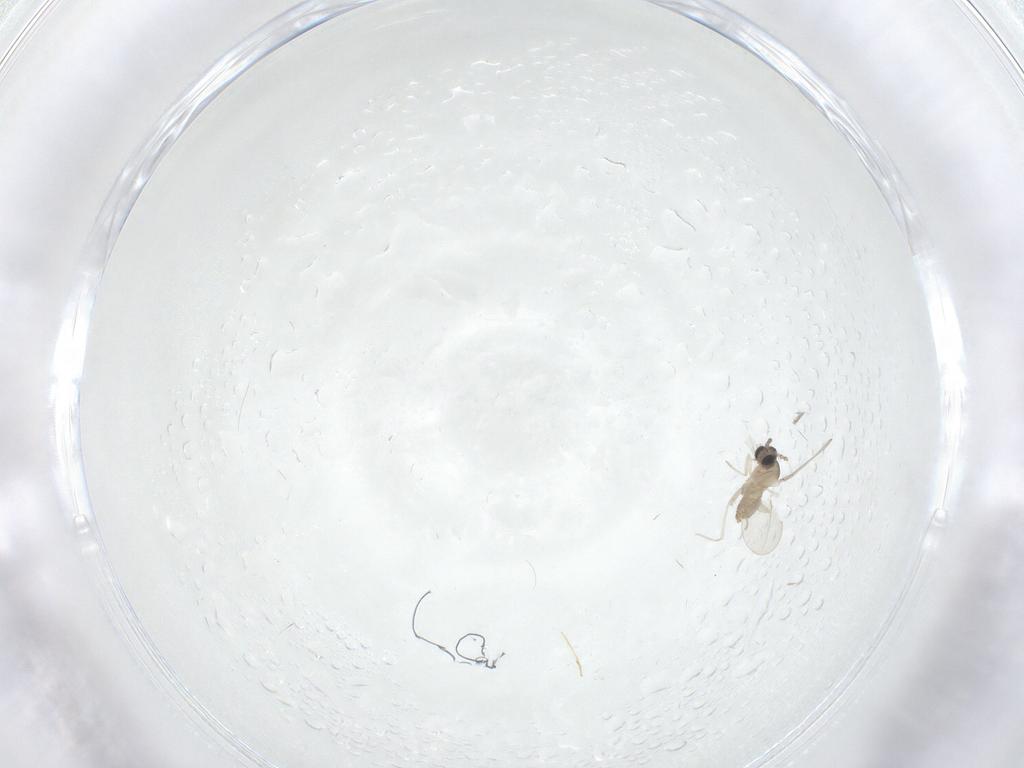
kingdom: Animalia
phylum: Arthropoda
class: Insecta
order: Diptera
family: Cecidomyiidae
